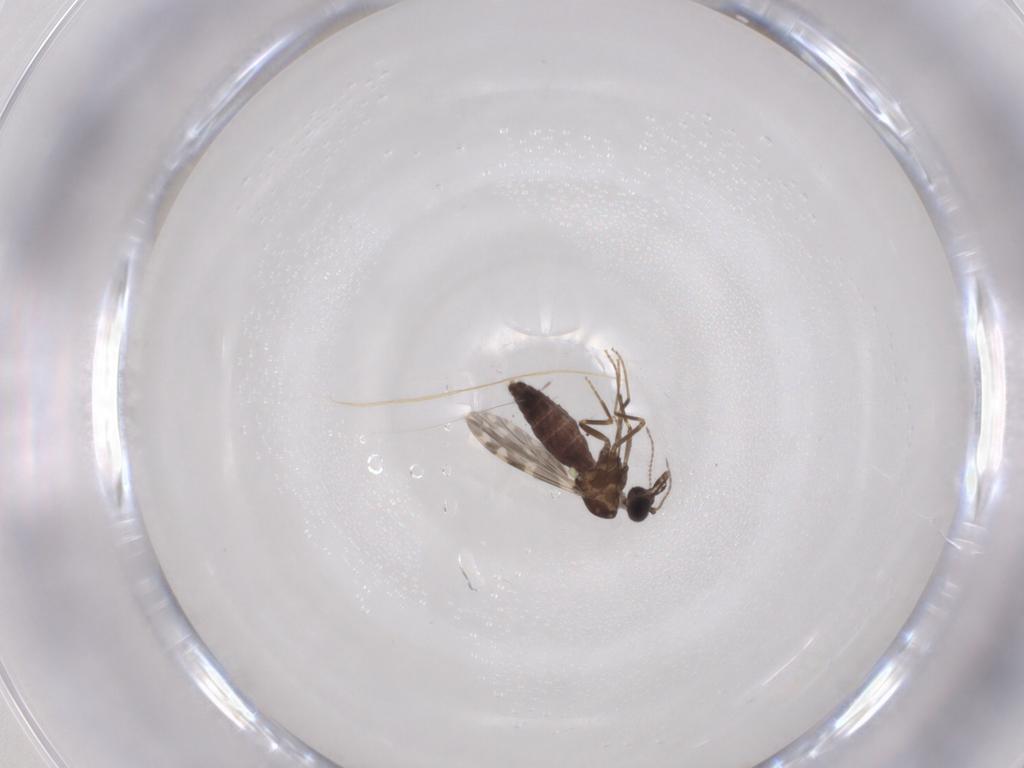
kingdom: Animalia
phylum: Arthropoda
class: Insecta
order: Diptera
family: Ceratopogonidae
